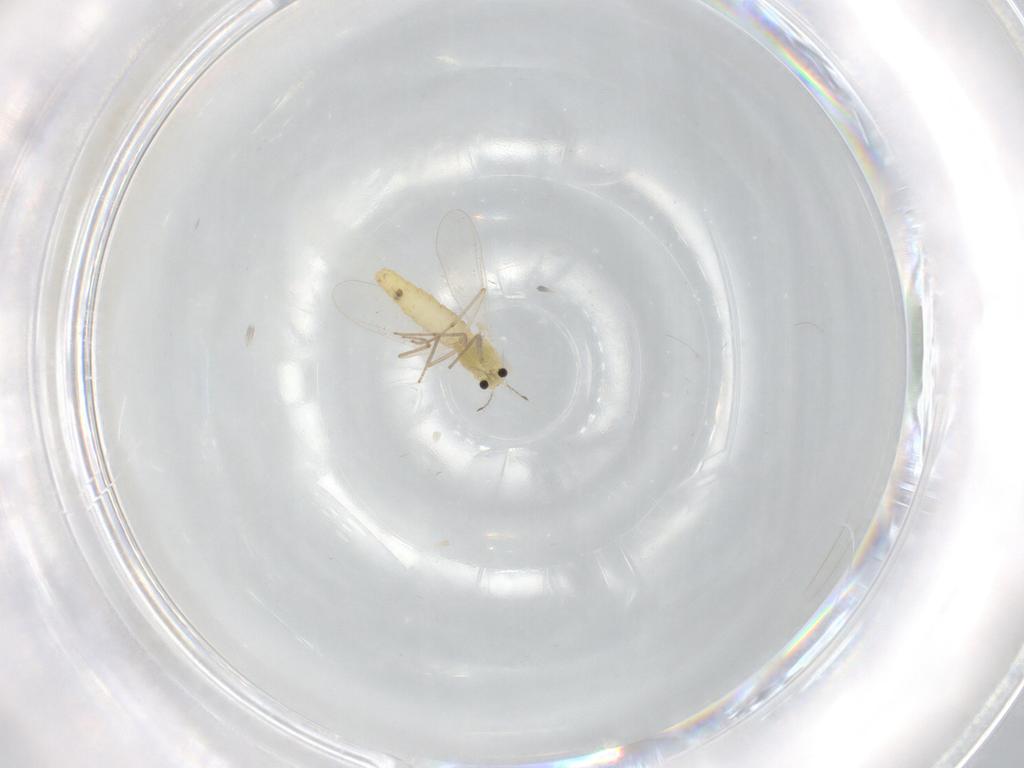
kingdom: Animalia
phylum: Arthropoda
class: Insecta
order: Diptera
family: Chironomidae
